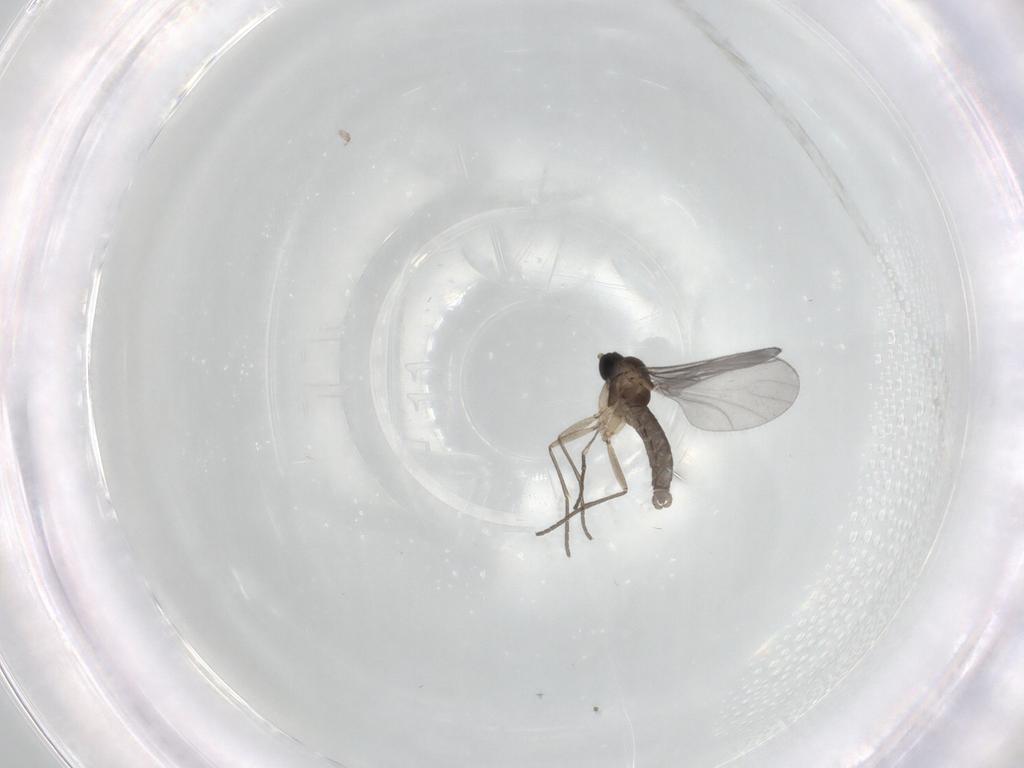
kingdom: Animalia
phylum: Arthropoda
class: Insecta
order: Diptera
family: Sciaridae
